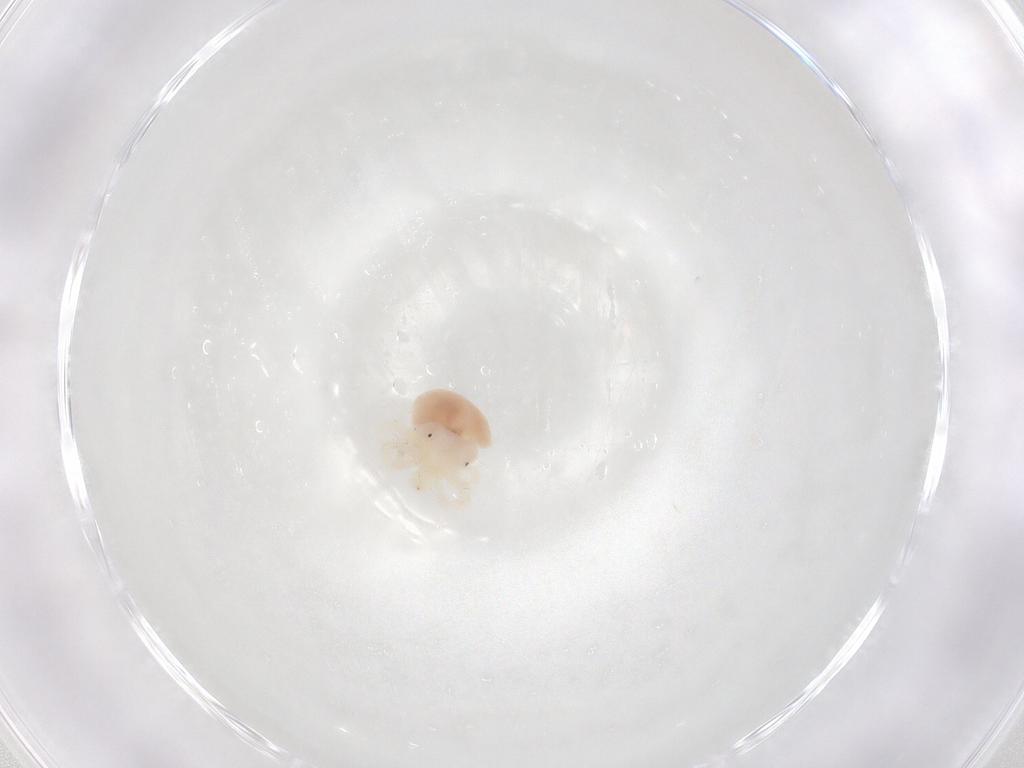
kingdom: Animalia
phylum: Arthropoda
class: Arachnida
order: Trombidiformes
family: Anystidae
